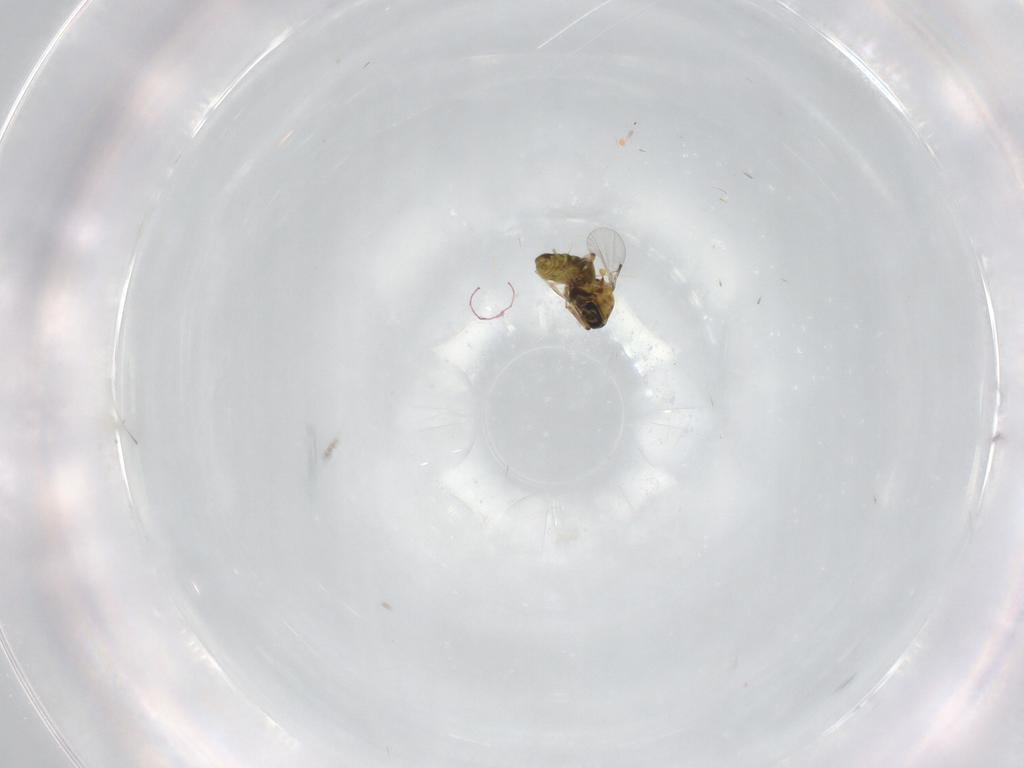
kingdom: Animalia
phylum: Arthropoda
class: Insecta
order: Diptera
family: Ceratopogonidae
